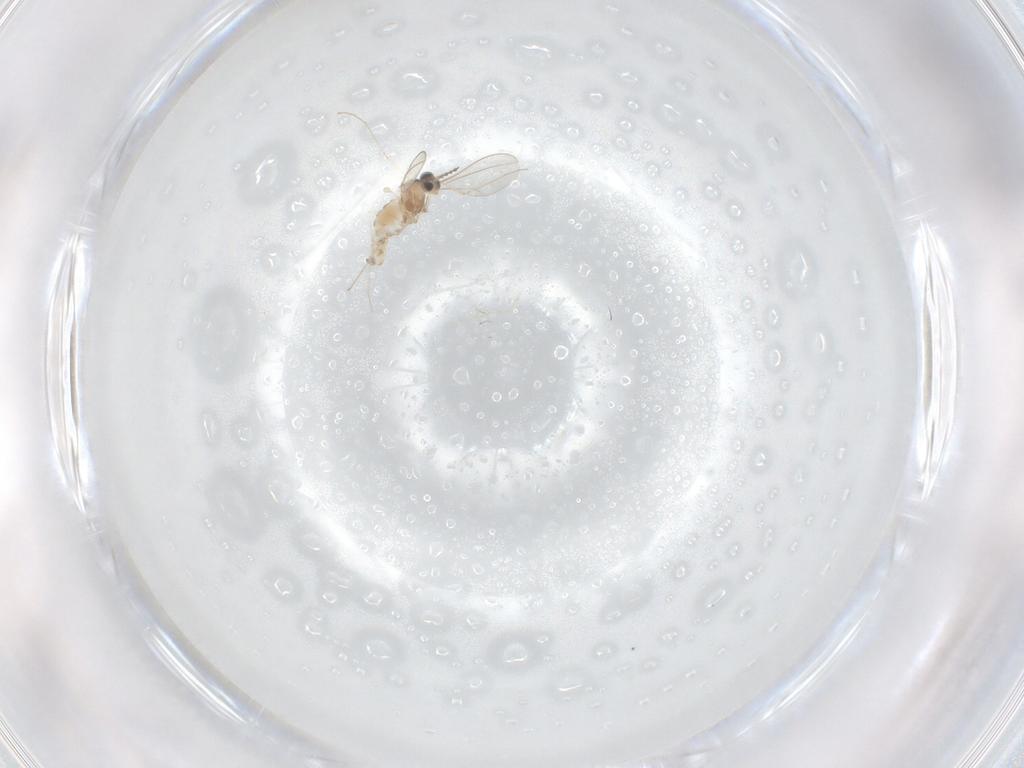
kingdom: Animalia
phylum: Arthropoda
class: Insecta
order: Diptera
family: Cecidomyiidae
